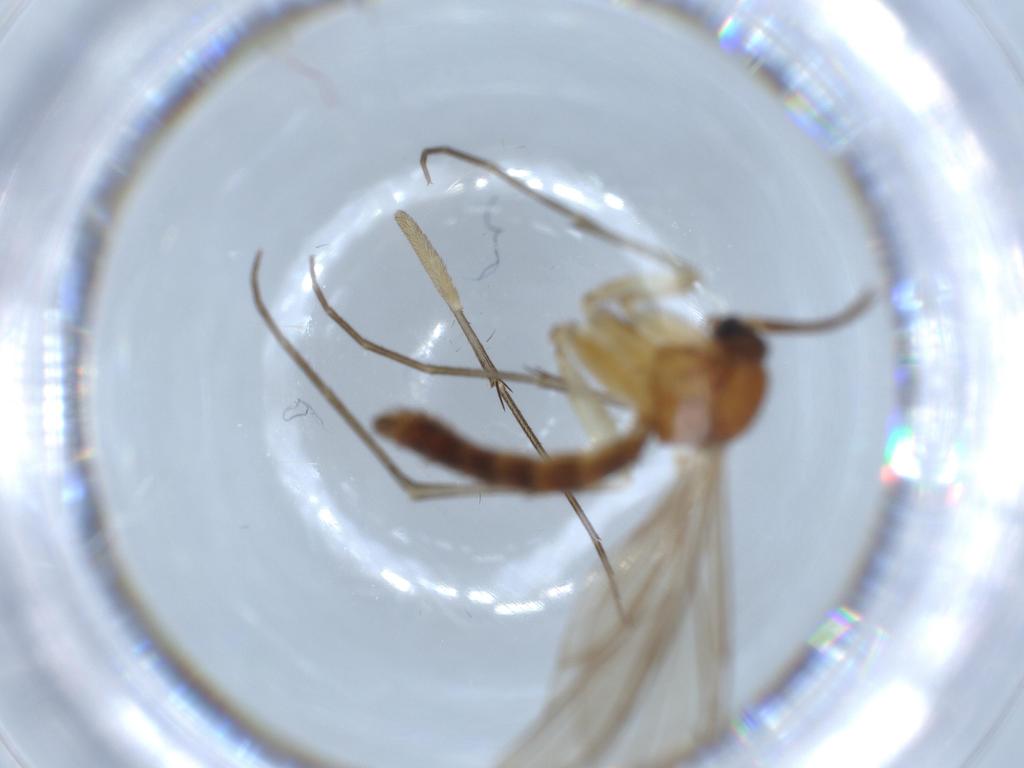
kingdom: Animalia
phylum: Arthropoda
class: Insecta
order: Diptera
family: Keroplatidae
